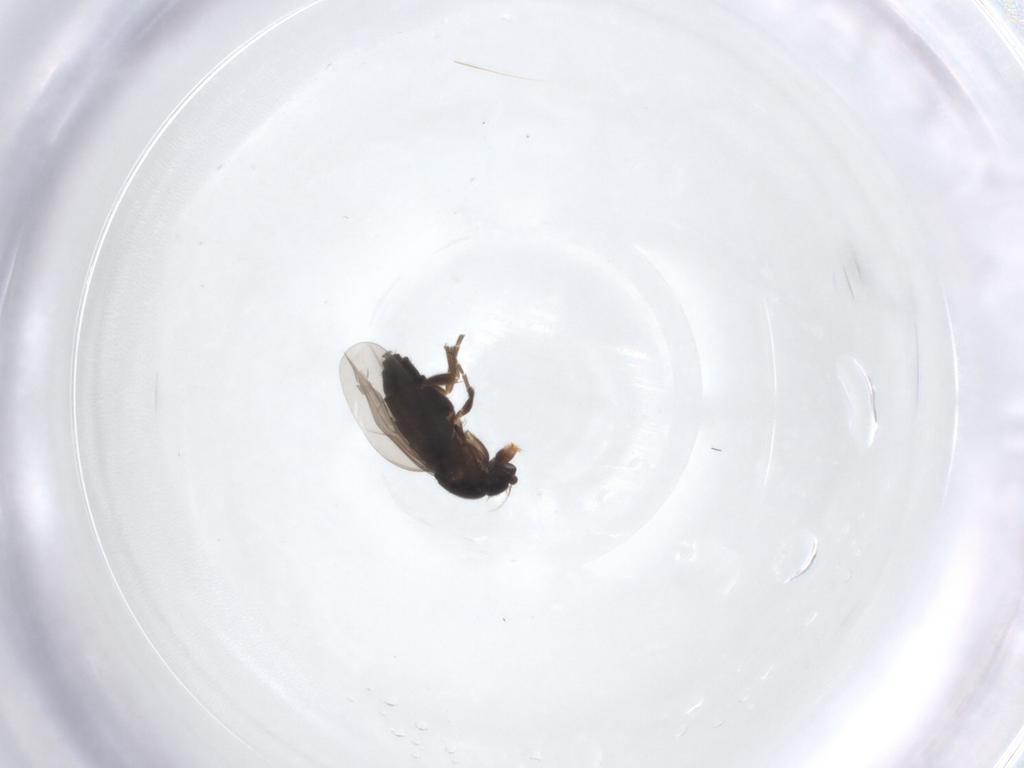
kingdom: Animalia
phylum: Arthropoda
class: Insecta
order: Diptera
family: Phoridae
